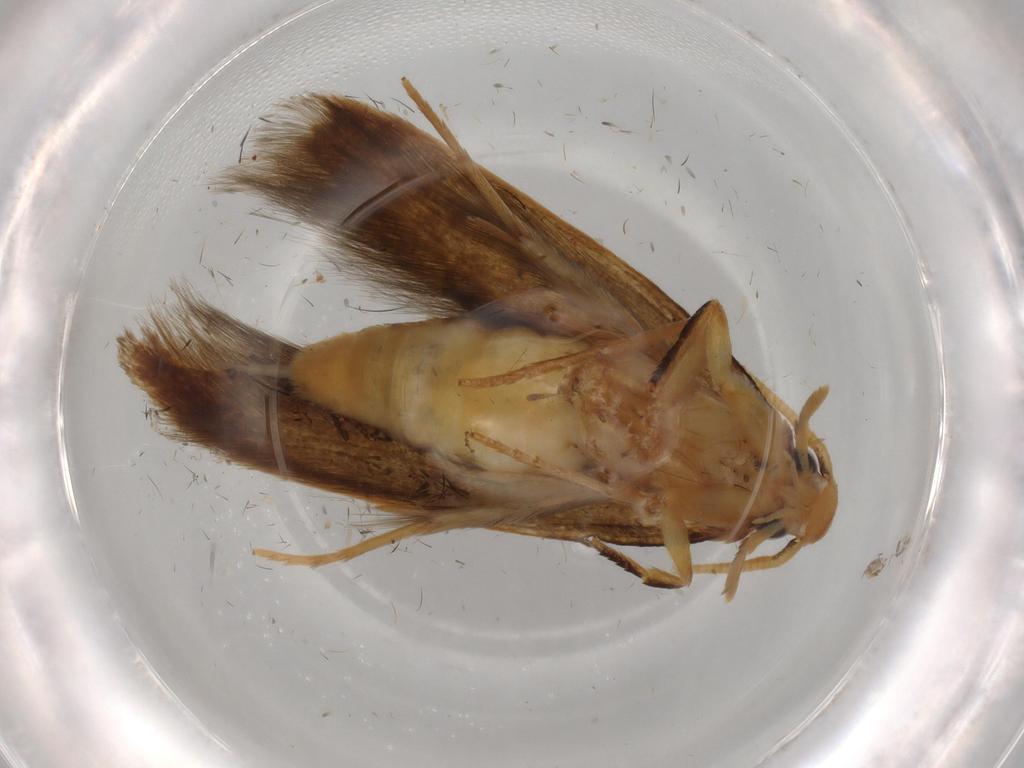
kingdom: Animalia
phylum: Arthropoda
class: Insecta
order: Lepidoptera
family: Tineidae
